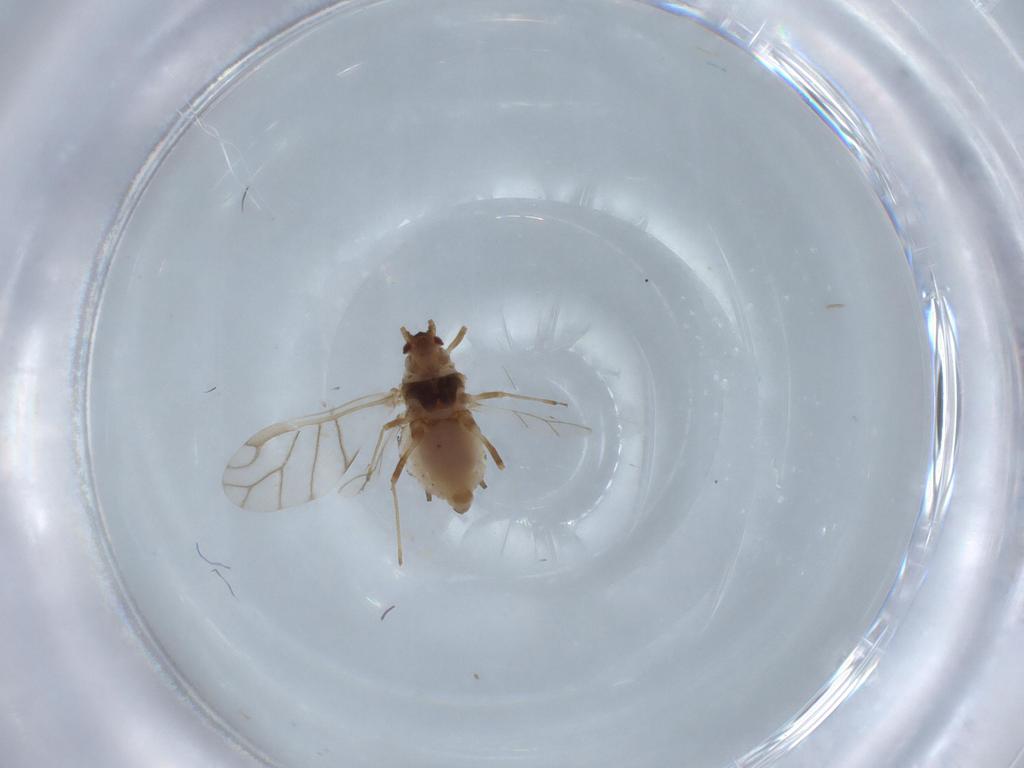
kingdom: Animalia
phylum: Arthropoda
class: Insecta
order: Hemiptera
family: Aphididae
